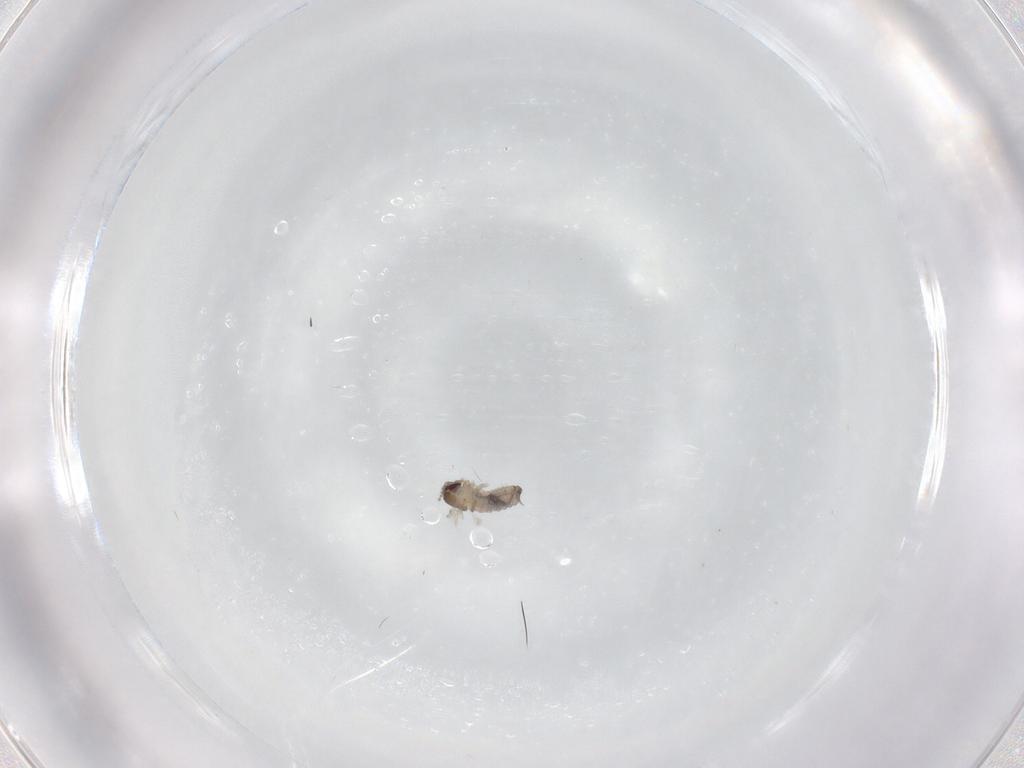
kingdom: Animalia
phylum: Arthropoda
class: Insecta
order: Diptera
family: Psychodidae
